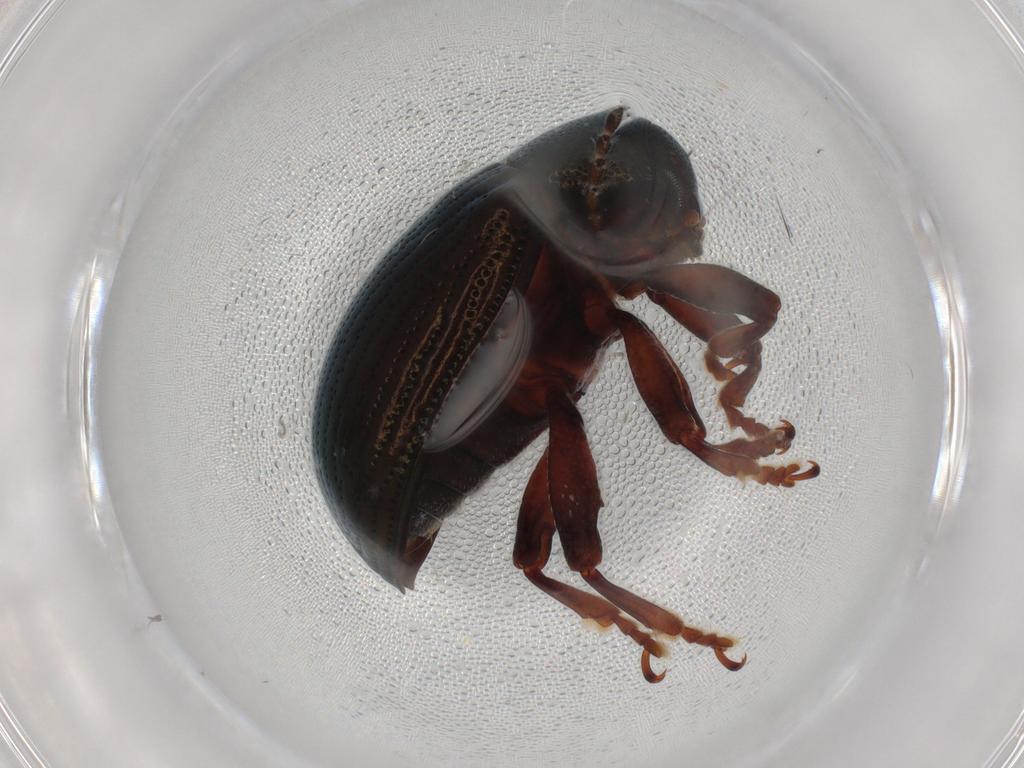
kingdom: Animalia
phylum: Arthropoda
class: Insecta
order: Coleoptera
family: Chrysomelidae
